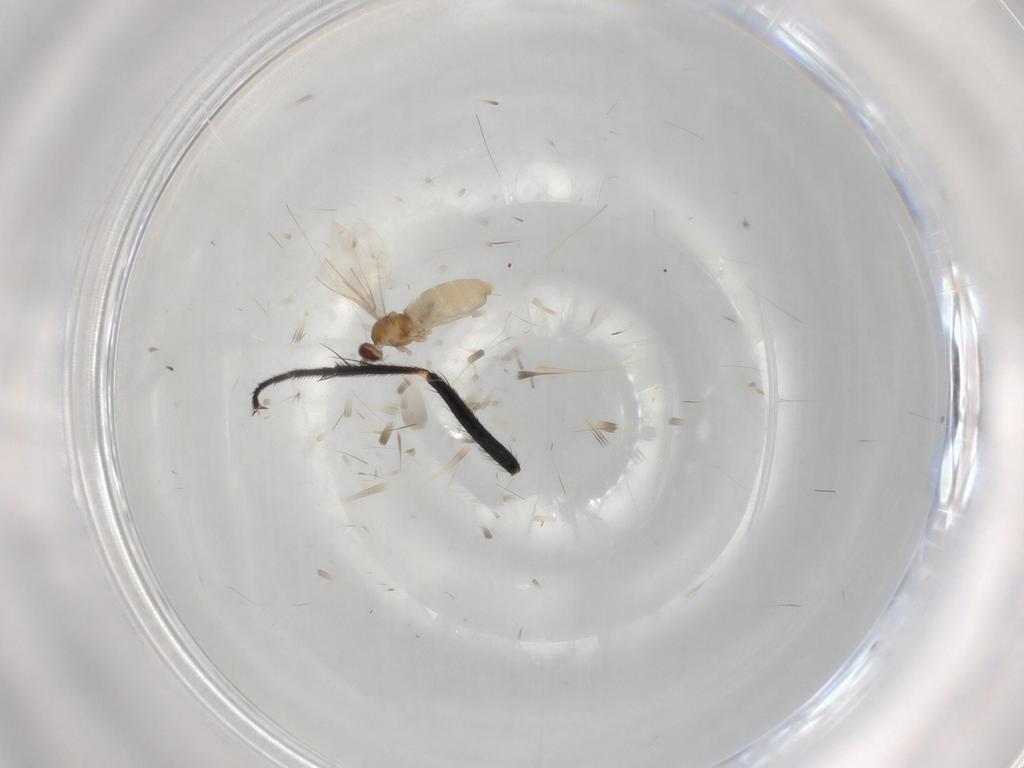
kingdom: Animalia
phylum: Arthropoda
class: Insecta
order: Diptera
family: Cecidomyiidae
